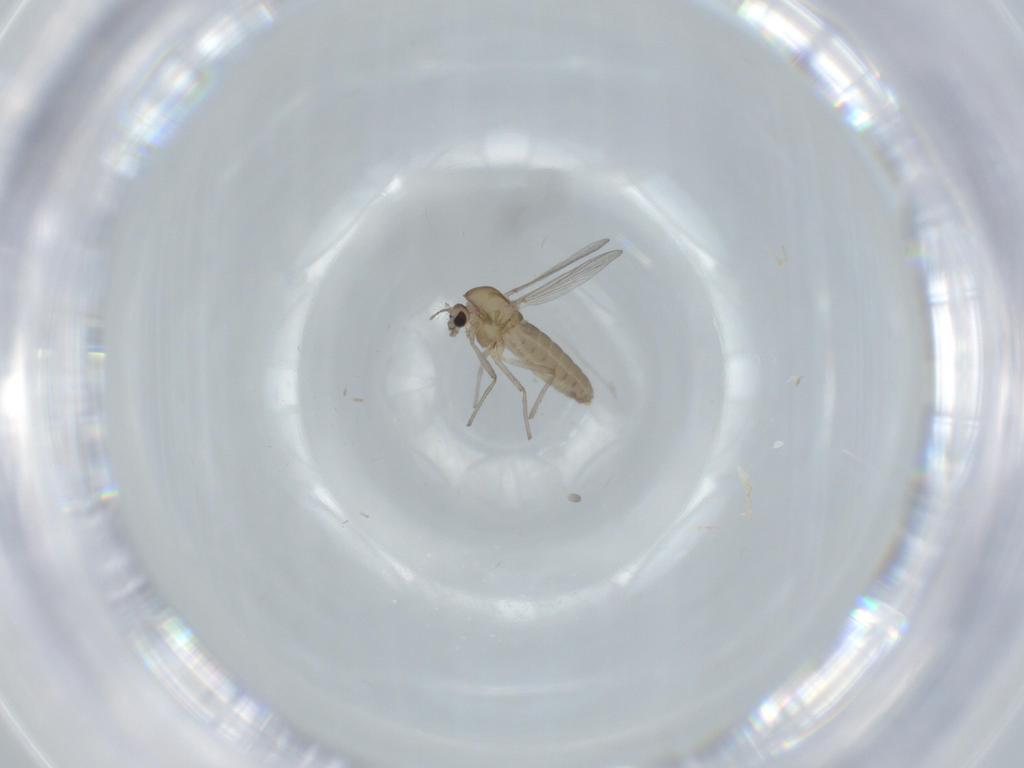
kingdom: Animalia
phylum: Arthropoda
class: Insecta
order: Diptera
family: Chironomidae
